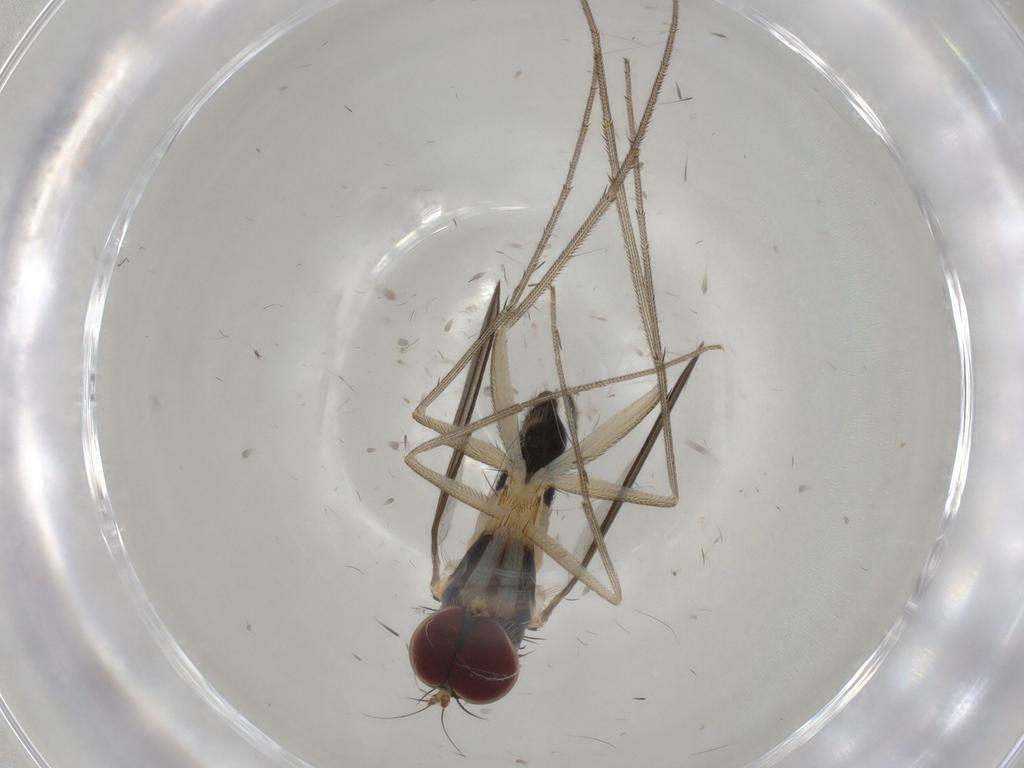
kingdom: Animalia
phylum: Arthropoda
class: Insecta
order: Diptera
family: Dolichopodidae
